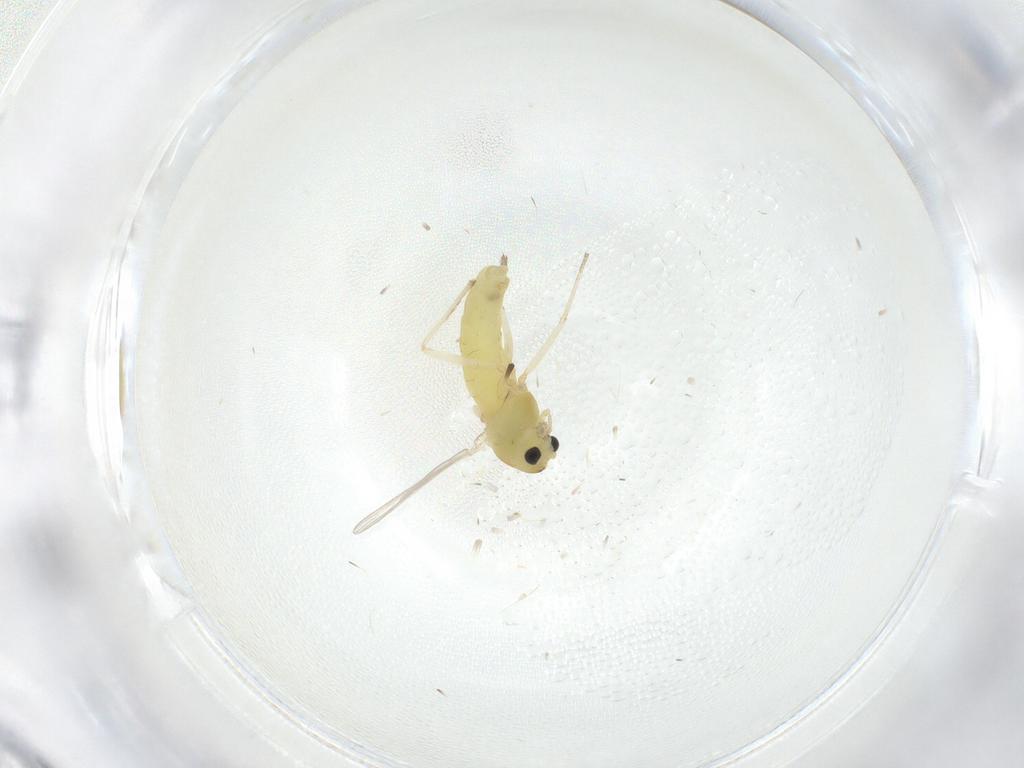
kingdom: Animalia
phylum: Arthropoda
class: Insecta
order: Diptera
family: Chironomidae
